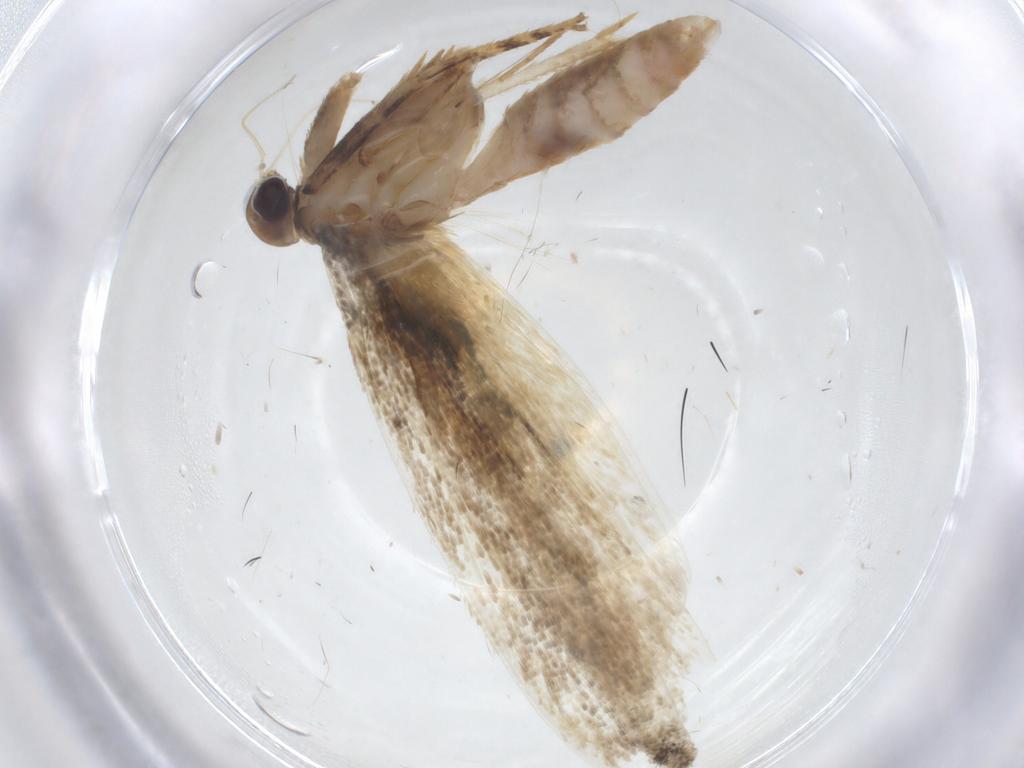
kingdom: Animalia
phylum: Arthropoda
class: Insecta
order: Lepidoptera
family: Gelechiidae
